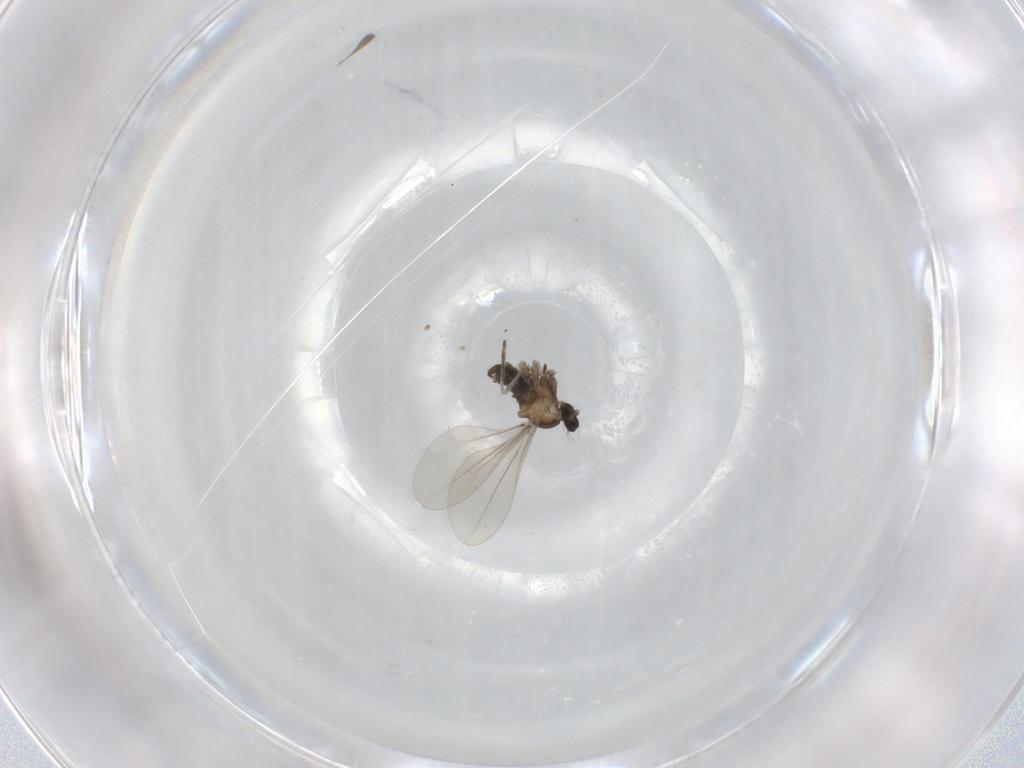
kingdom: Animalia
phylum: Arthropoda
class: Insecta
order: Diptera
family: Cecidomyiidae
